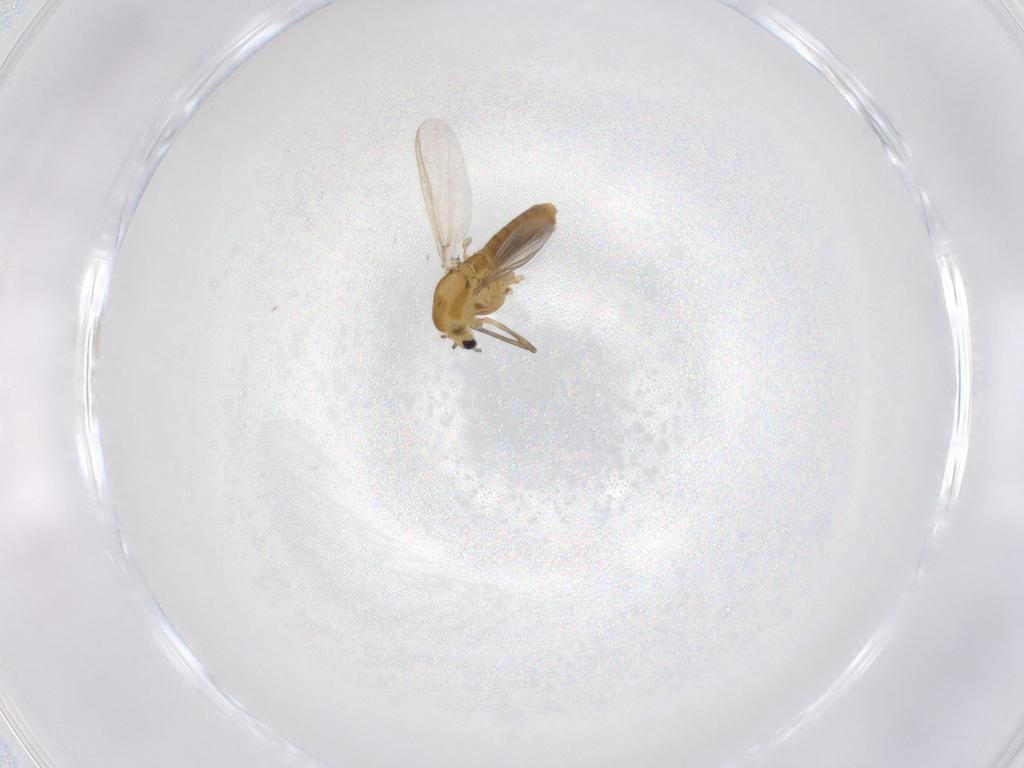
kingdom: Animalia
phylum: Arthropoda
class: Insecta
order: Diptera
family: Chironomidae
